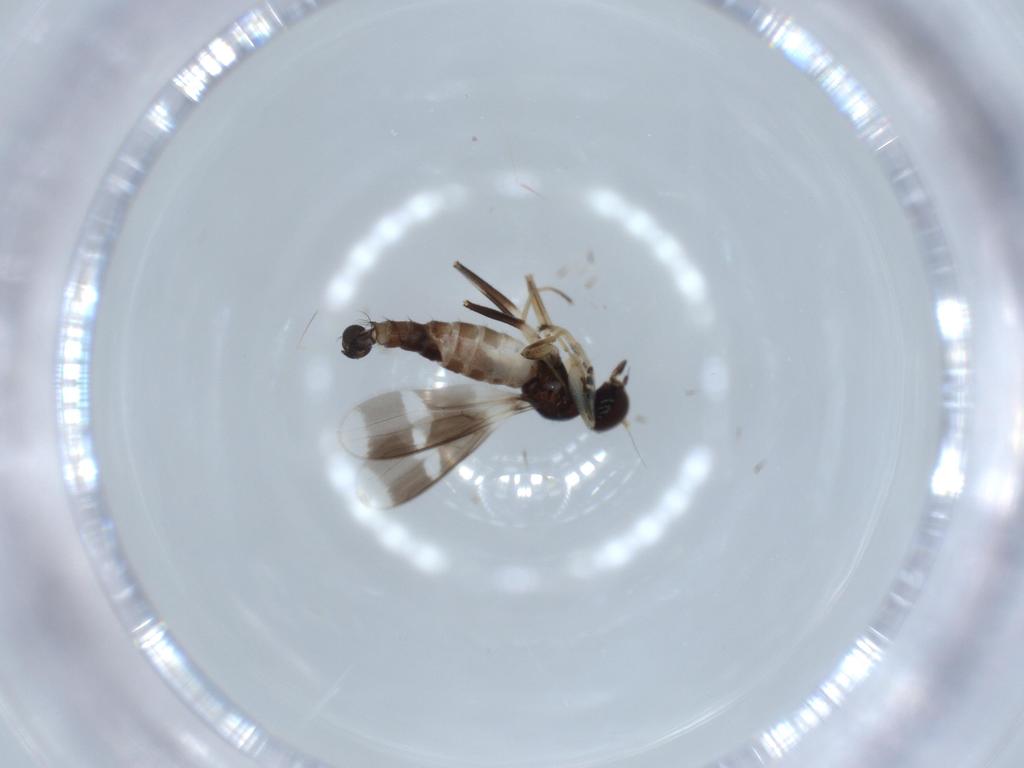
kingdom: Animalia
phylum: Arthropoda
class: Insecta
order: Diptera
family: Hybotidae
